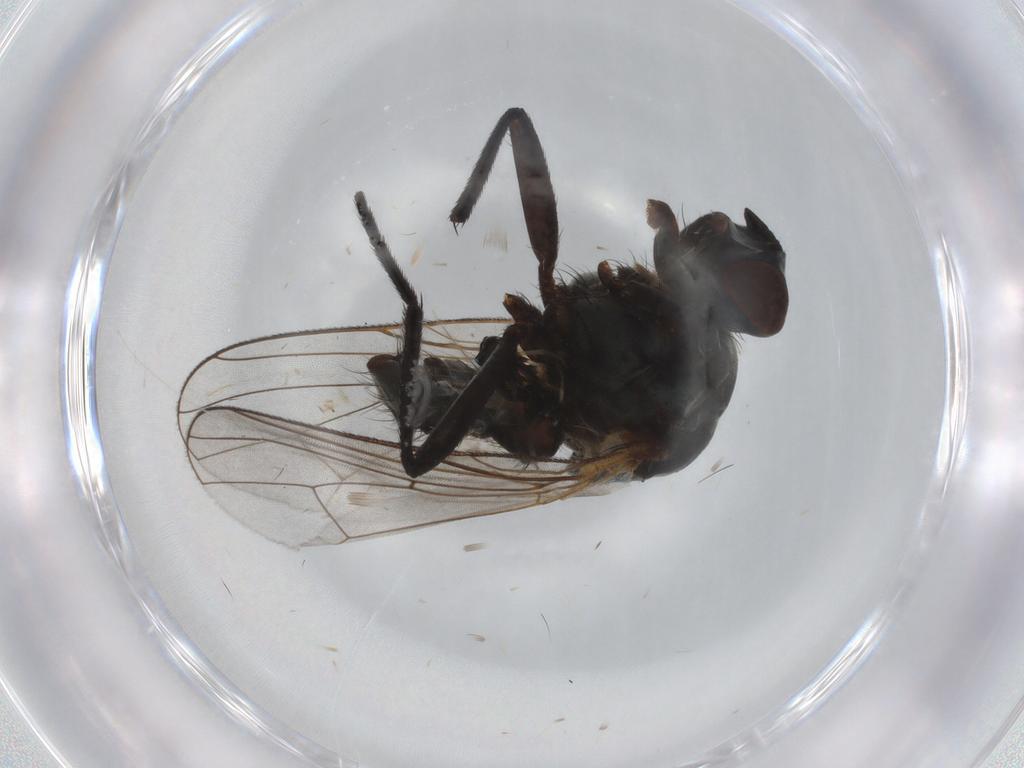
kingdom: Animalia
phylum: Arthropoda
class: Insecta
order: Diptera
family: Anthomyiidae
